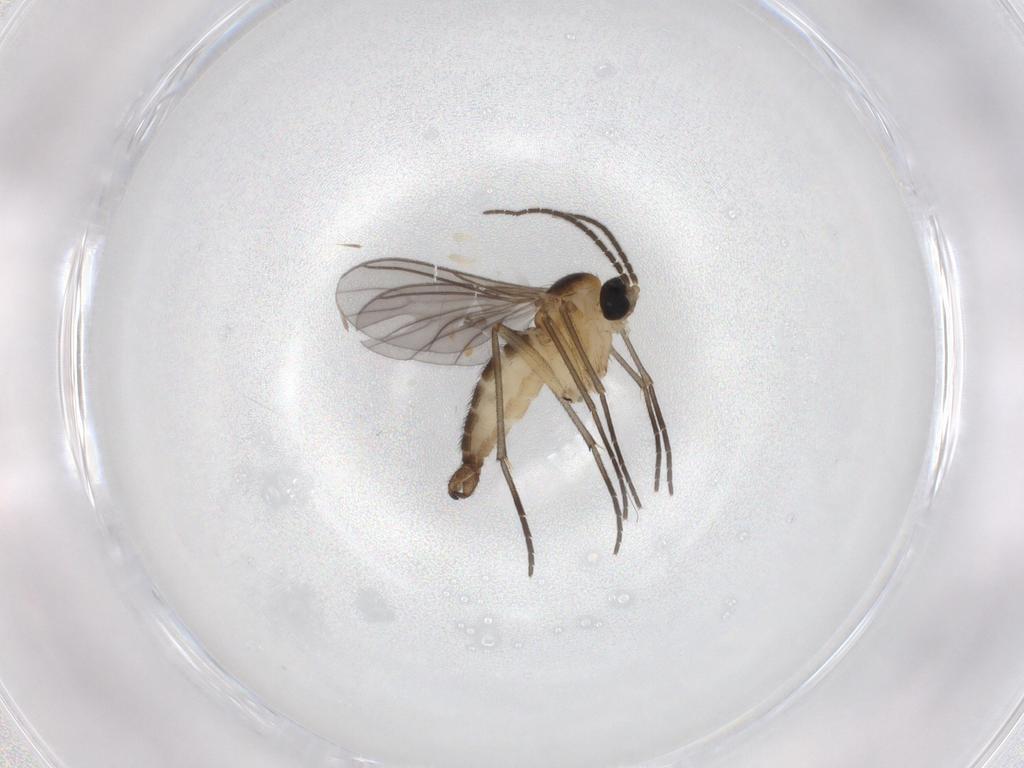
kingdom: Animalia
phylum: Arthropoda
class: Insecta
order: Diptera
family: Sciaridae
